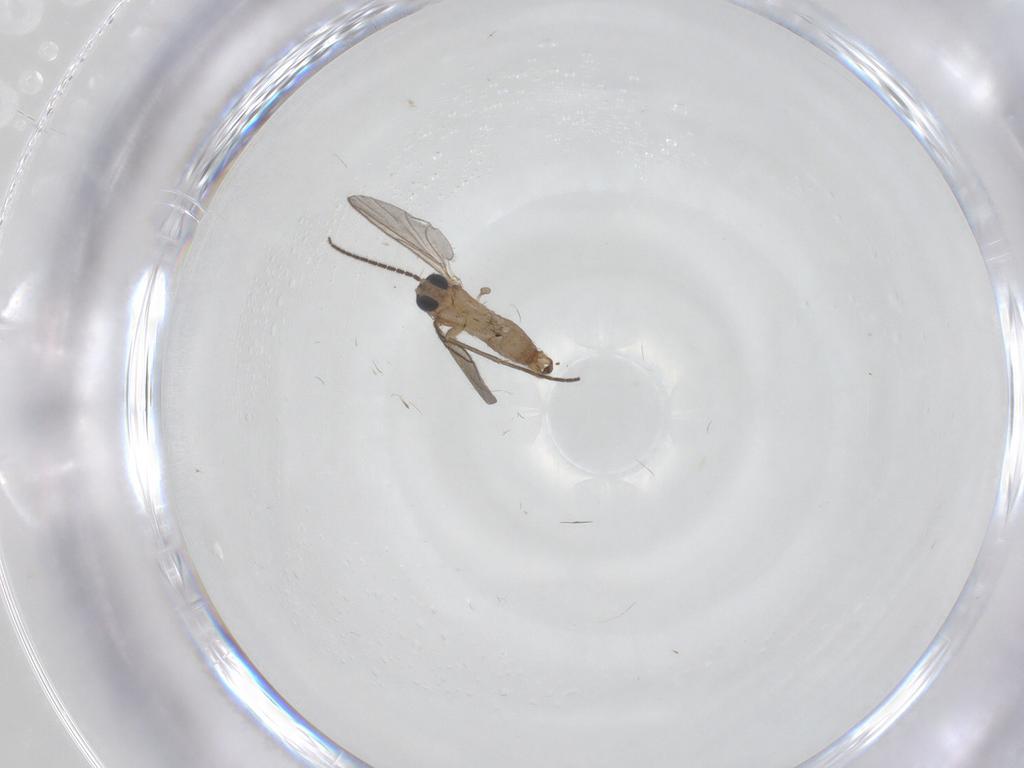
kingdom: Animalia
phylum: Arthropoda
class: Insecta
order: Diptera
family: Sciaridae
